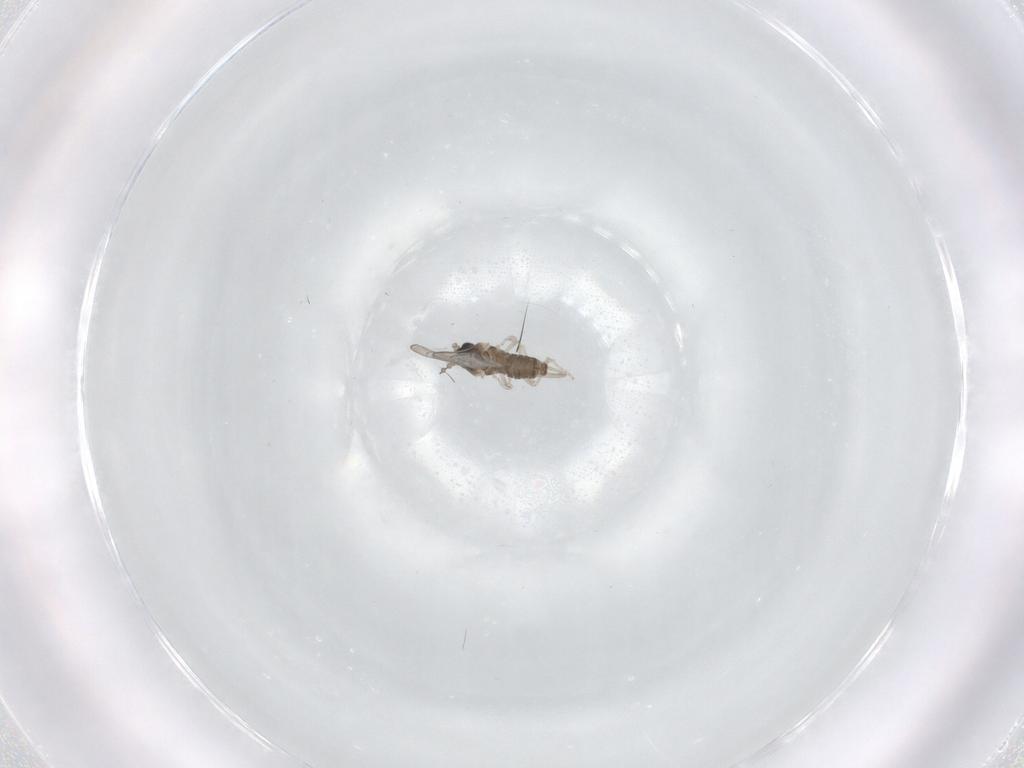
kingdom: Animalia
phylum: Arthropoda
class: Insecta
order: Diptera
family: Cecidomyiidae
